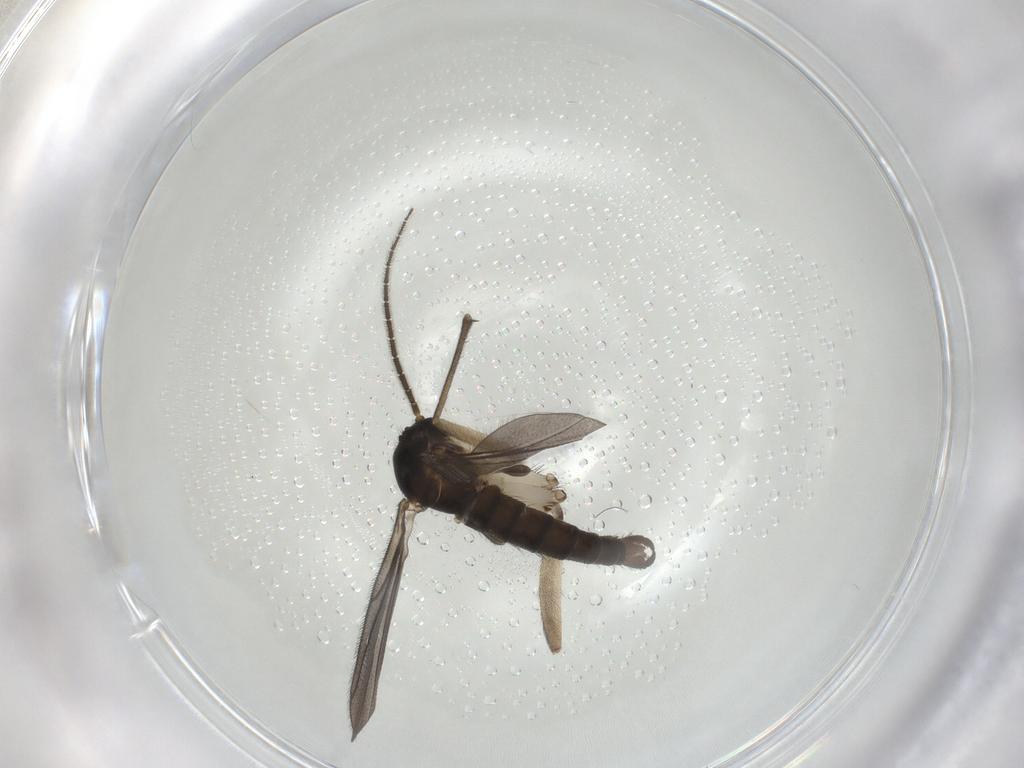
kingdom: Animalia
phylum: Arthropoda
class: Insecta
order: Diptera
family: Sciaridae
